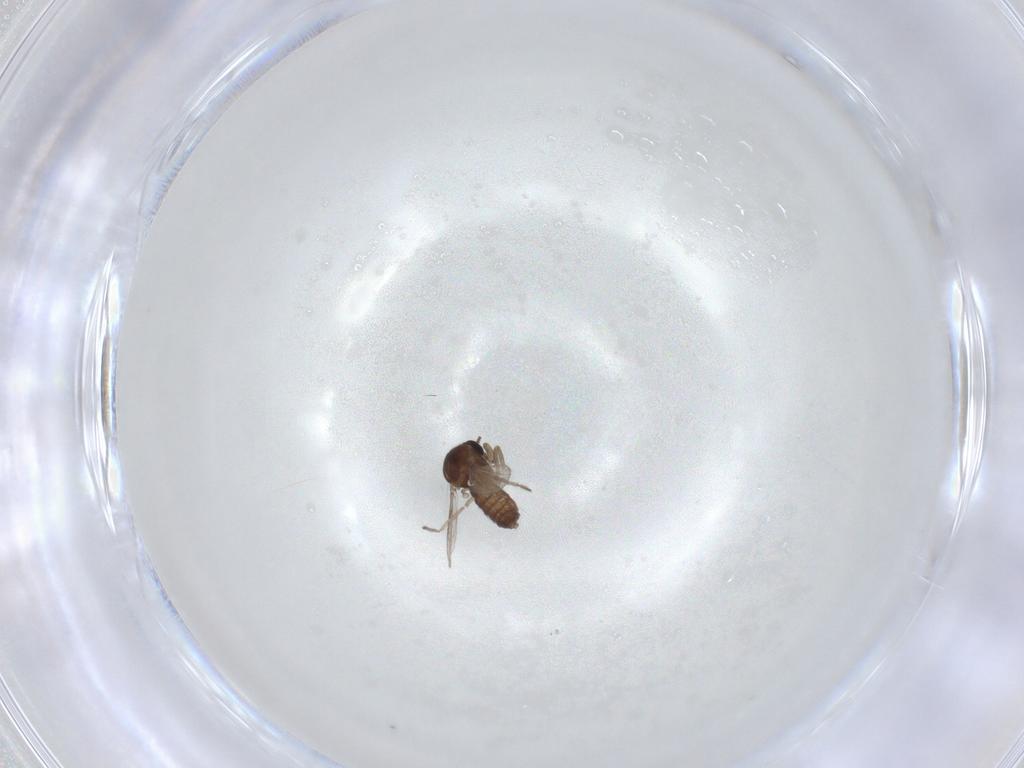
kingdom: Animalia
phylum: Arthropoda
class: Insecta
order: Diptera
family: Ceratopogonidae
